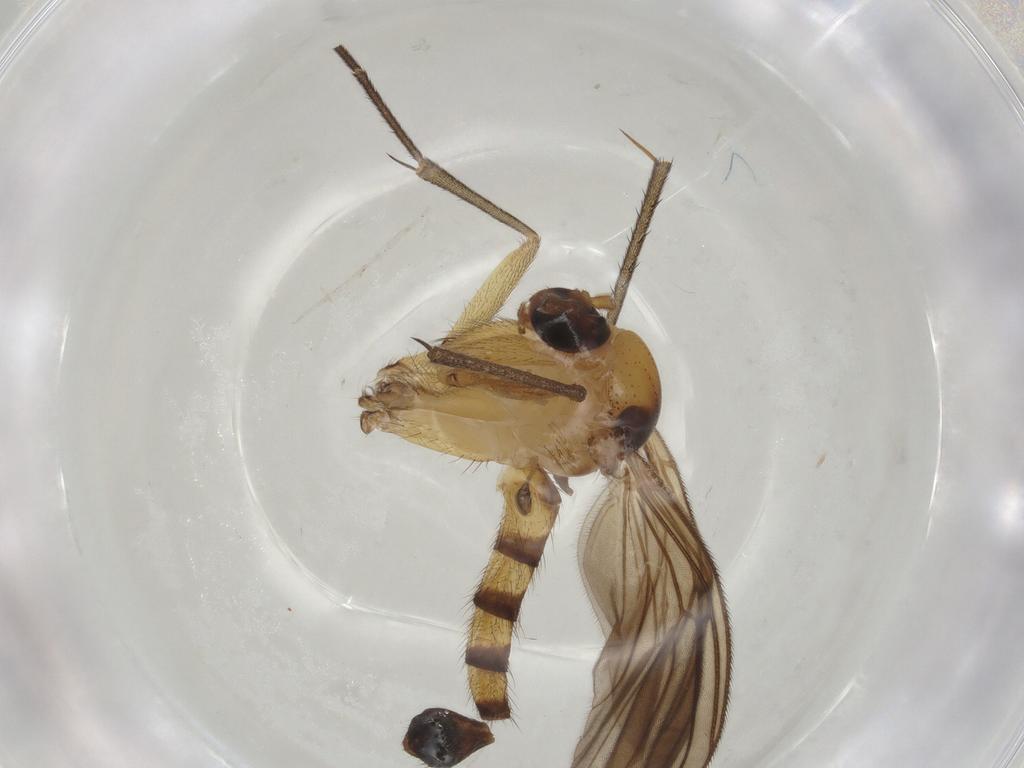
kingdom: Animalia
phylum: Arthropoda
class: Insecta
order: Diptera
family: Mycetophilidae
